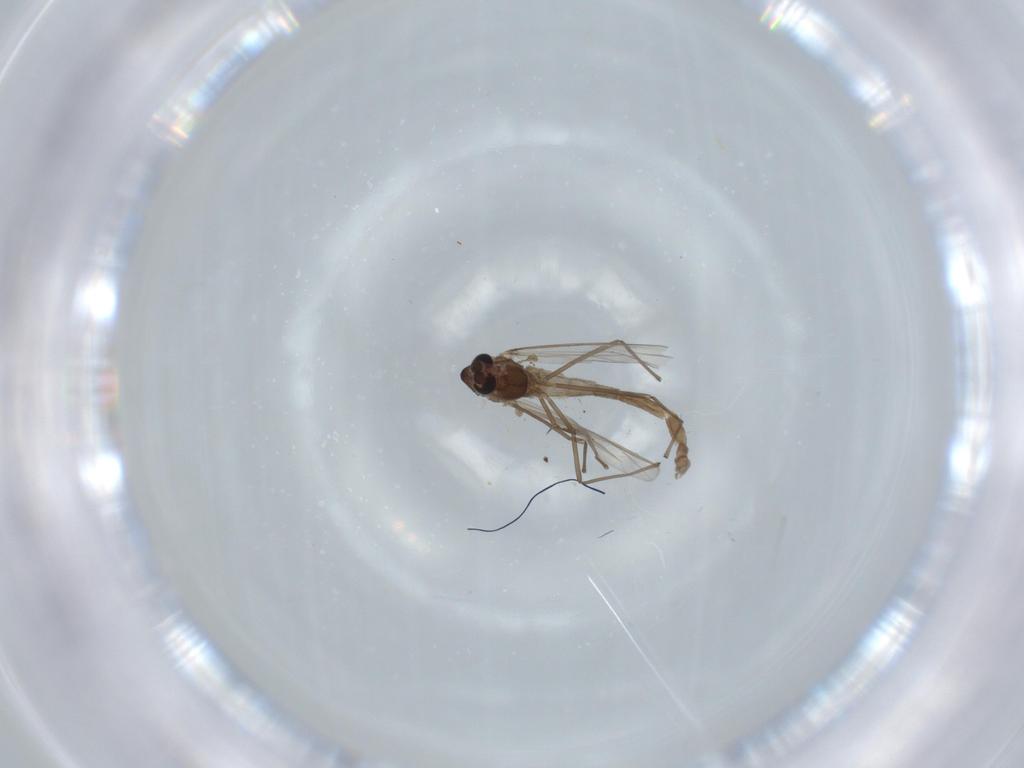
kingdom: Animalia
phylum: Arthropoda
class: Insecta
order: Diptera
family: Chironomidae
